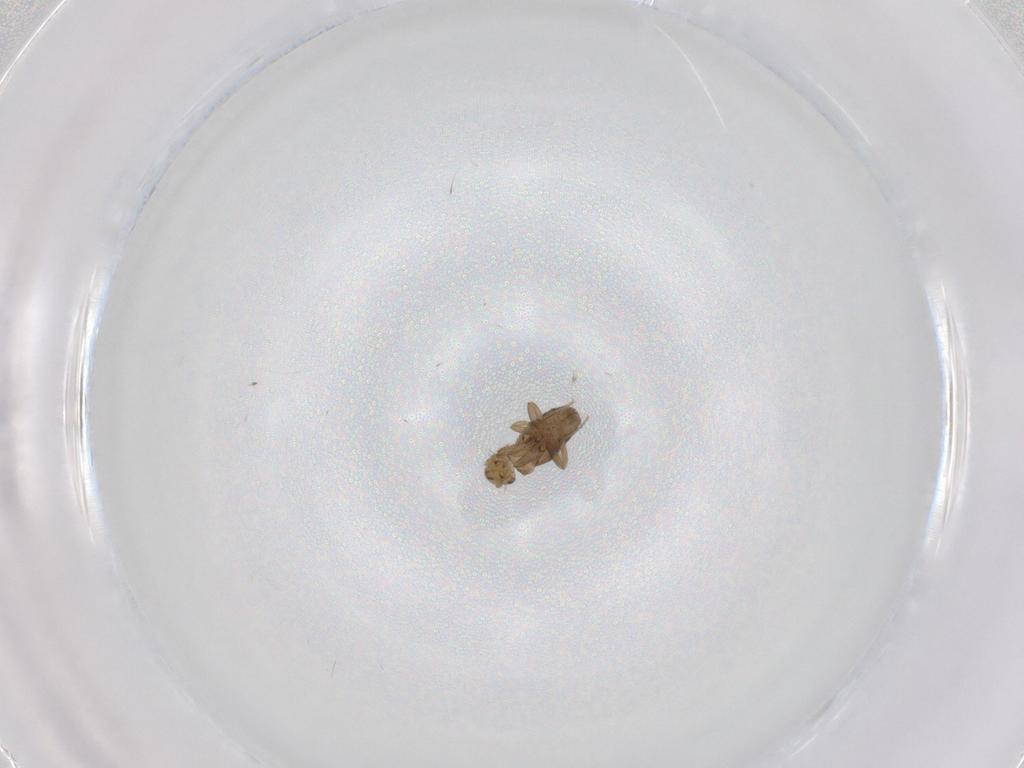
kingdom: Animalia
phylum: Arthropoda
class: Insecta
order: Diptera
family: Phoridae
